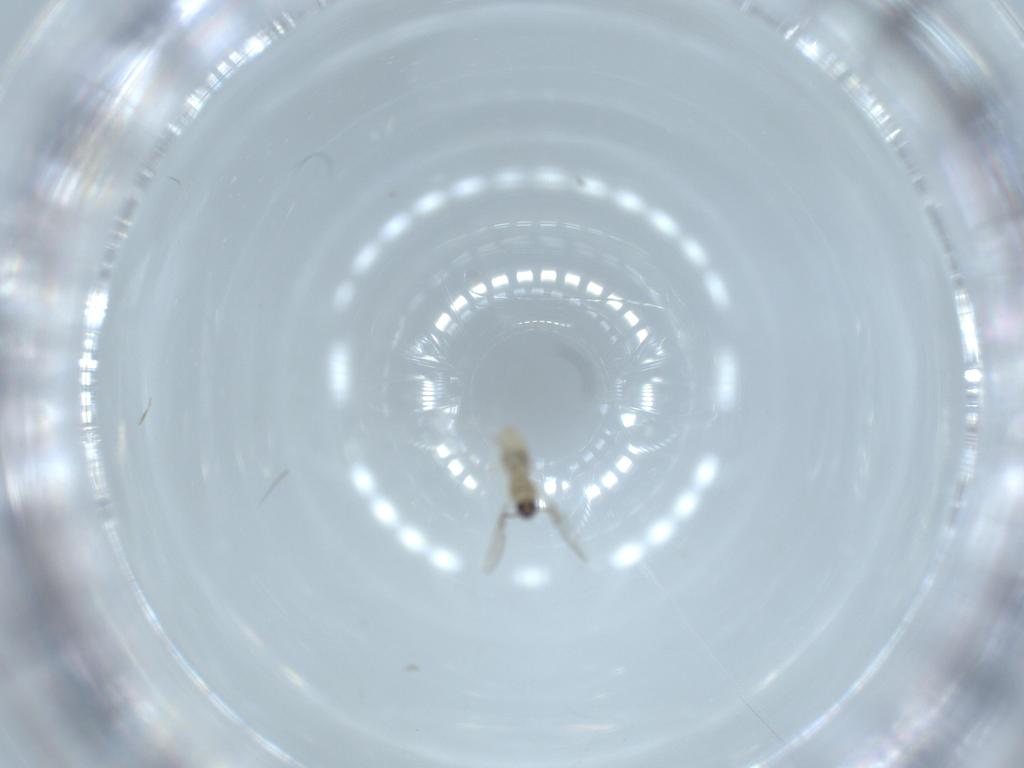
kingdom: Animalia
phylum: Arthropoda
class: Insecta
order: Diptera
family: Cecidomyiidae
